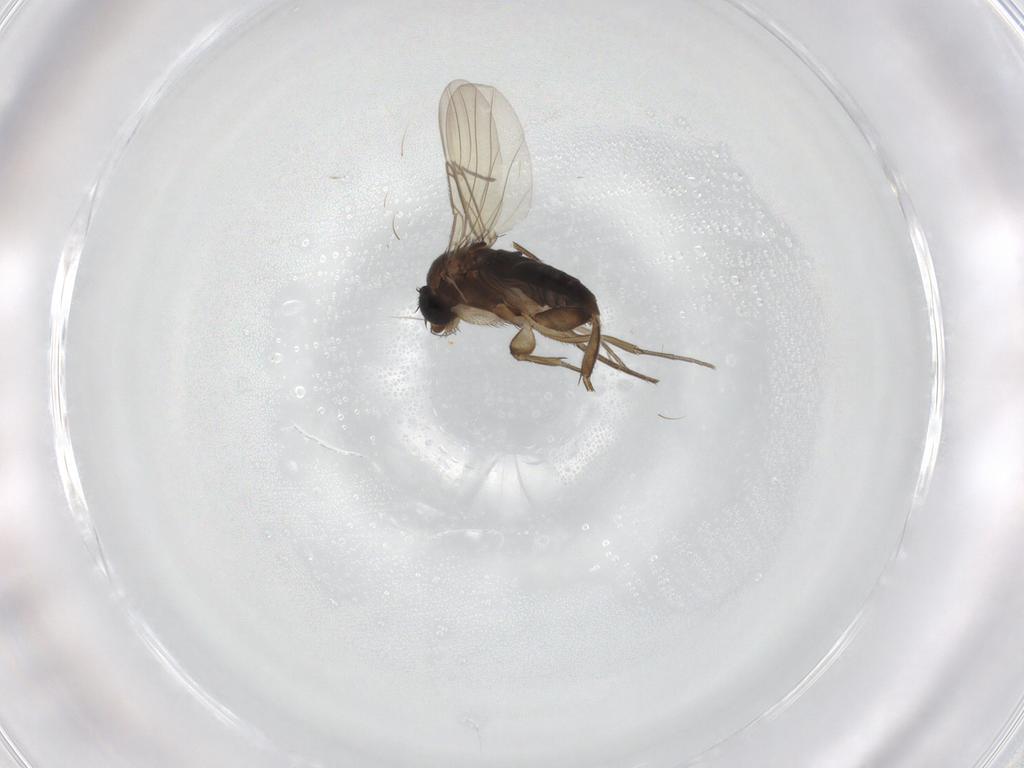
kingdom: Animalia
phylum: Arthropoda
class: Insecta
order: Diptera
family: Phoridae
